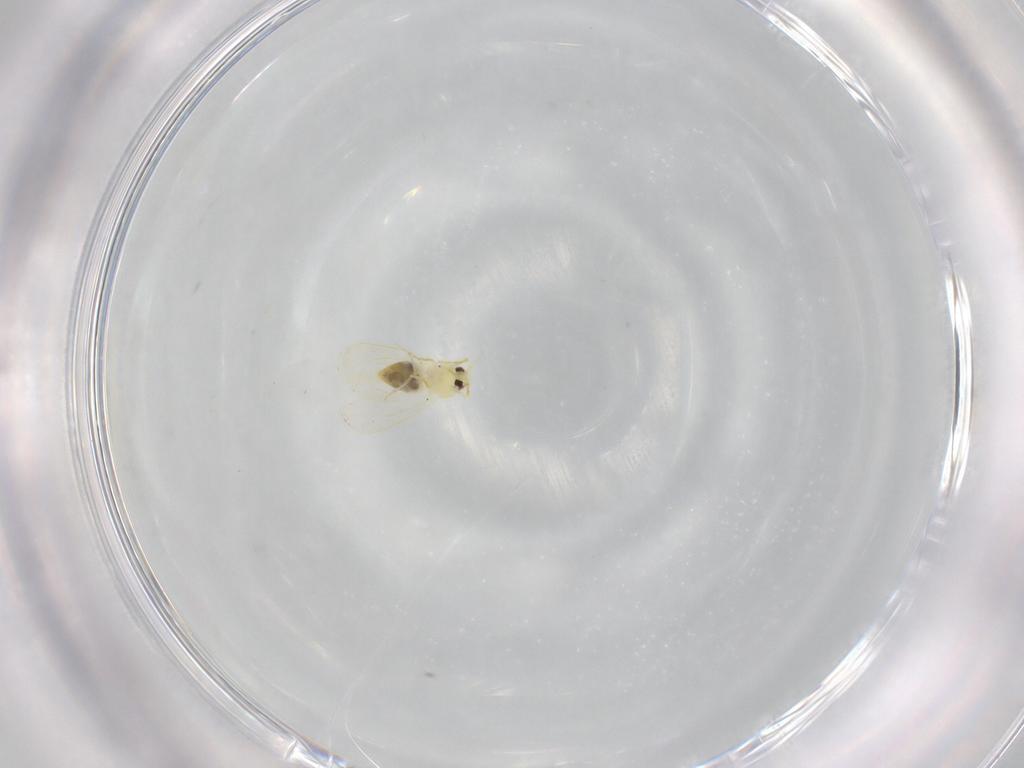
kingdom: Animalia
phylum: Arthropoda
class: Insecta
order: Hemiptera
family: Aleyrodidae
